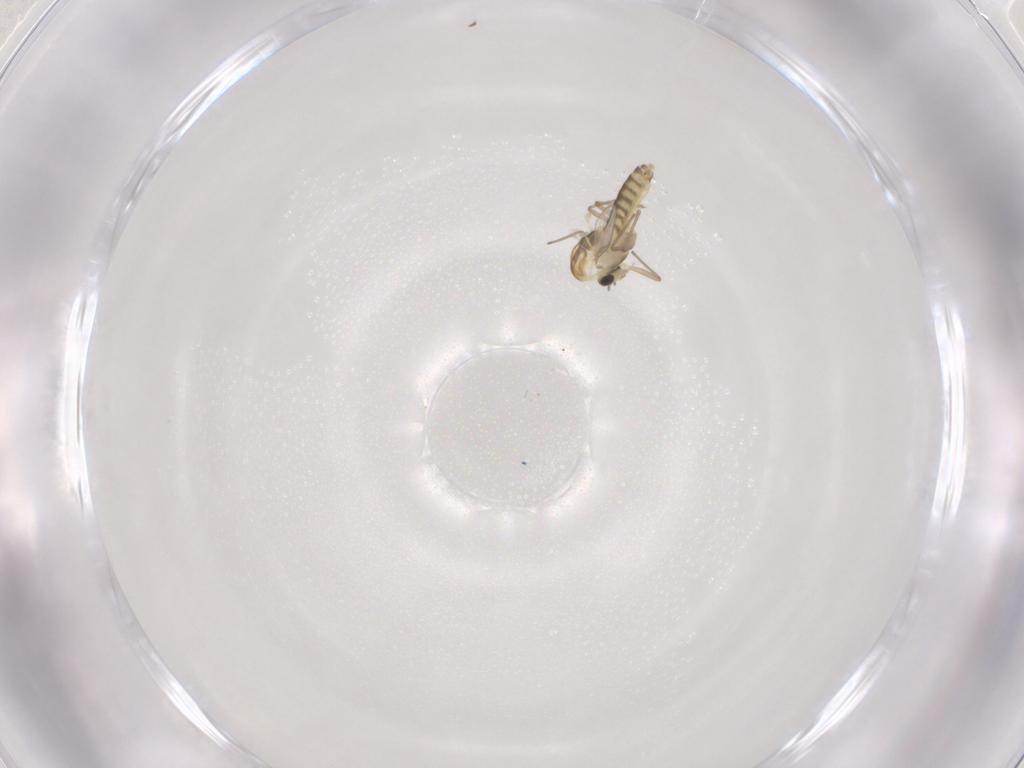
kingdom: Animalia
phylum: Arthropoda
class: Insecta
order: Diptera
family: Chironomidae
